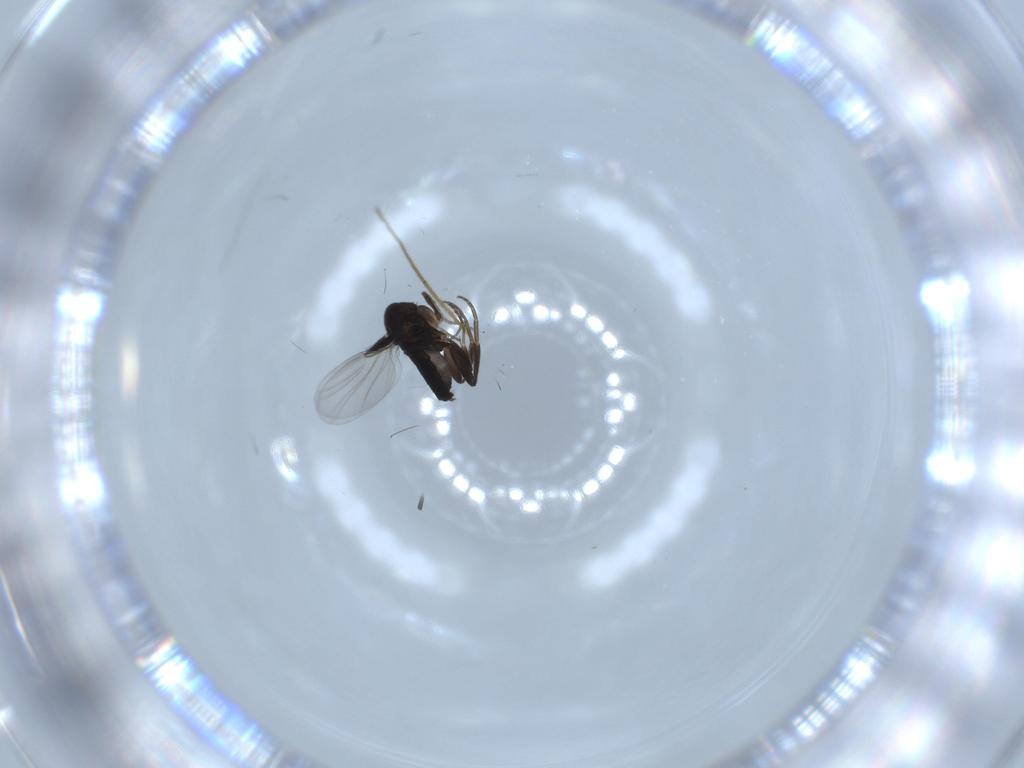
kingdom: Animalia
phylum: Arthropoda
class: Insecta
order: Diptera
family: Phoridae
